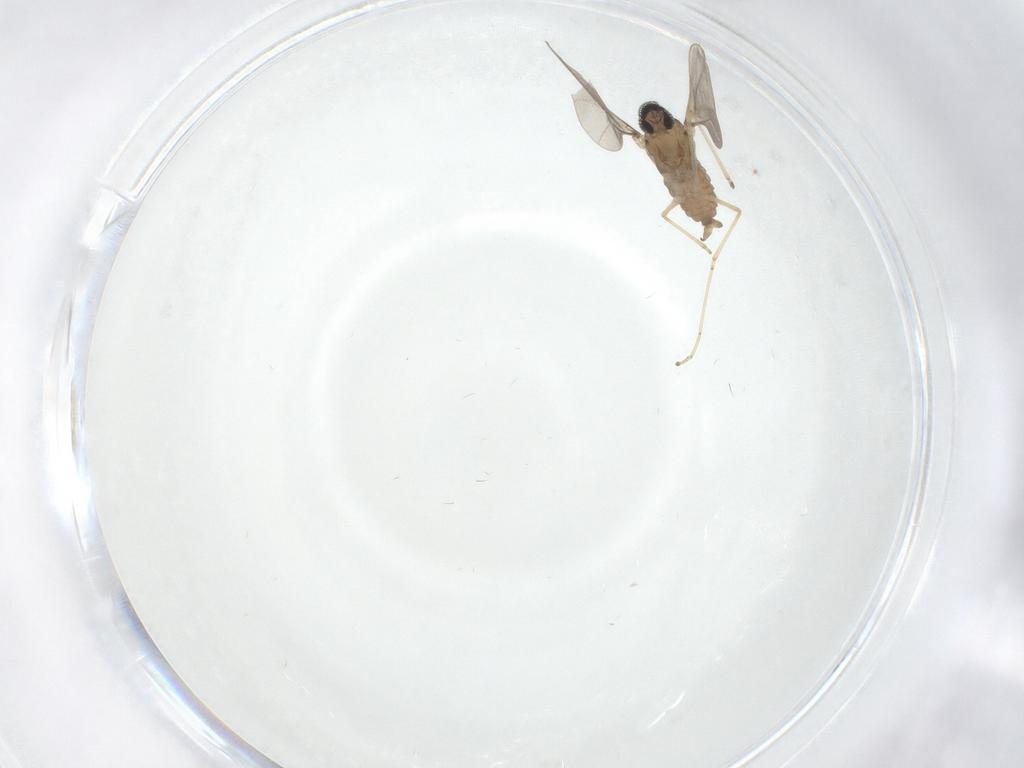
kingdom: Animalia
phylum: Arthropoda
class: Insecta
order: Diptera
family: Cecidomyiidae
